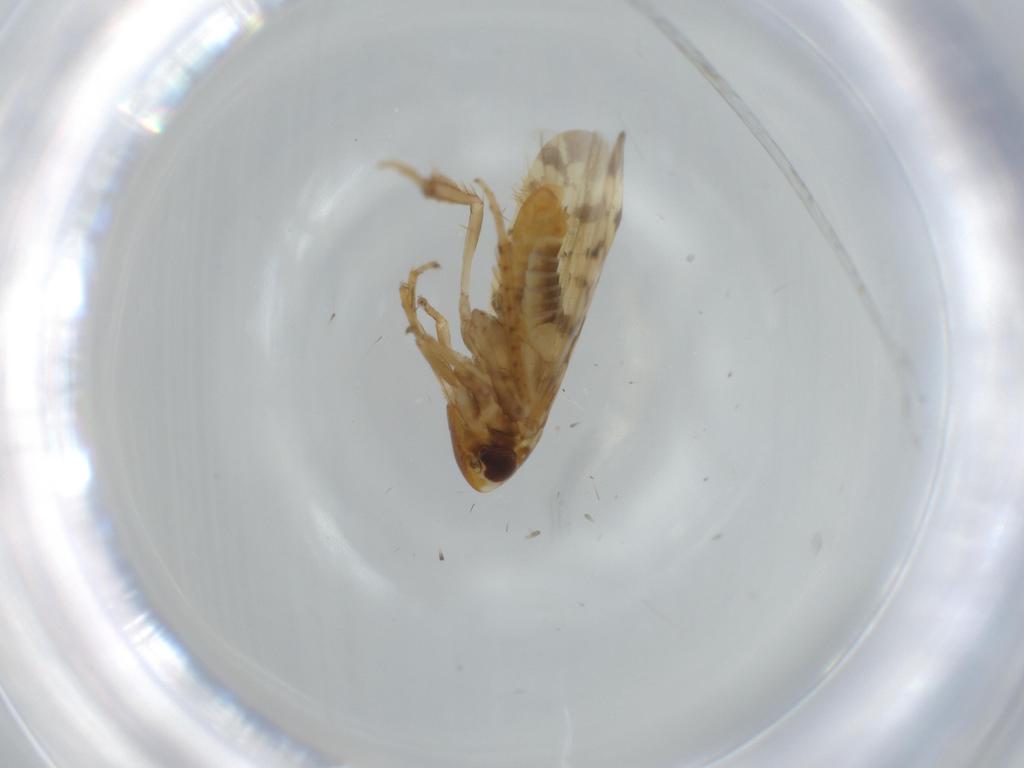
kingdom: Animalia
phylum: Arthropoda
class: Insecta
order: Hemiptera
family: Cicadellidae
